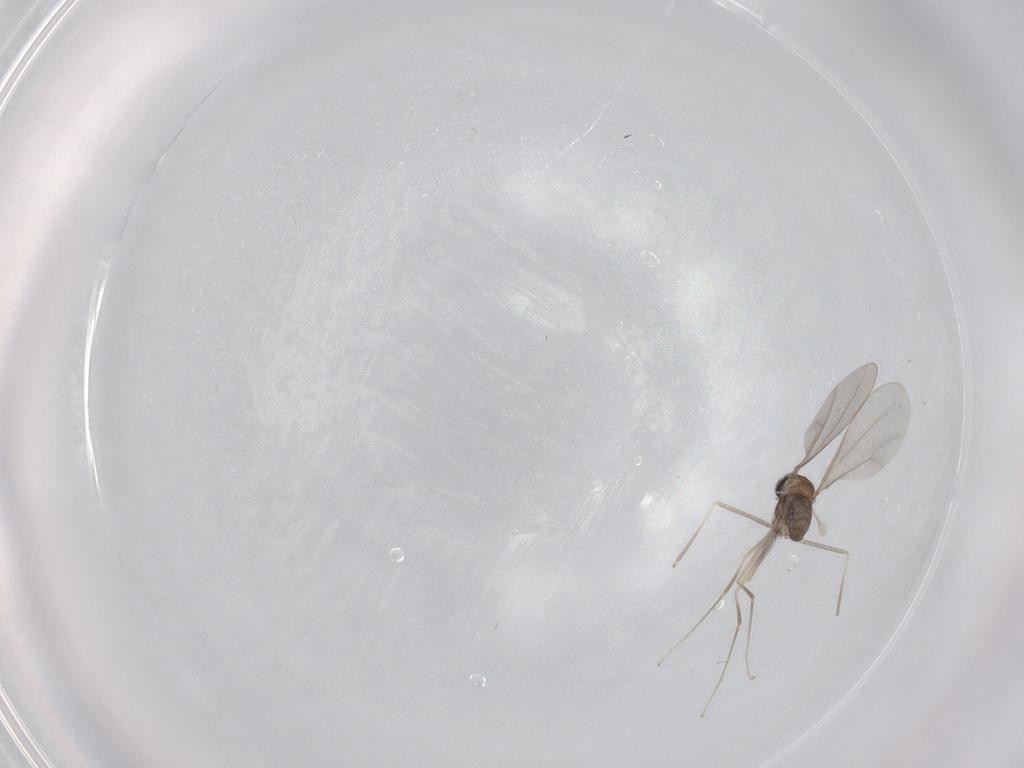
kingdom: Animalia
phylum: Arthropoda
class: Insecta
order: Diptera
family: Cecidomyiidae
